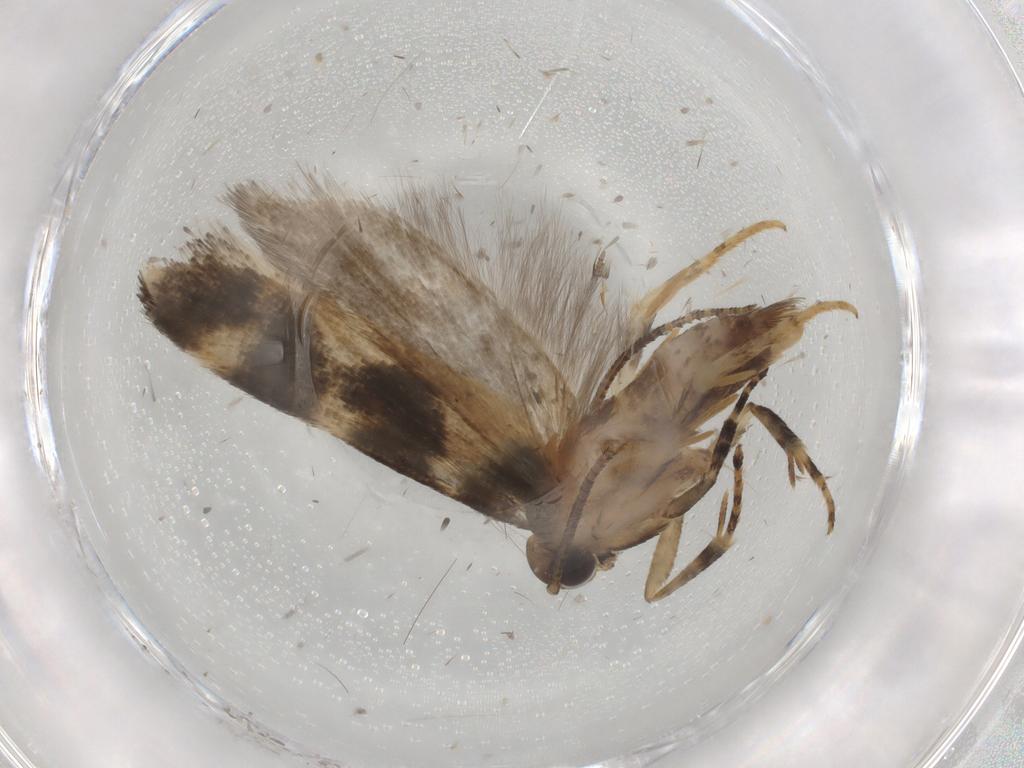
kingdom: Animalia
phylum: Arthropoda
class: Insecta
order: Lepidoptera
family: Gelechiidae
